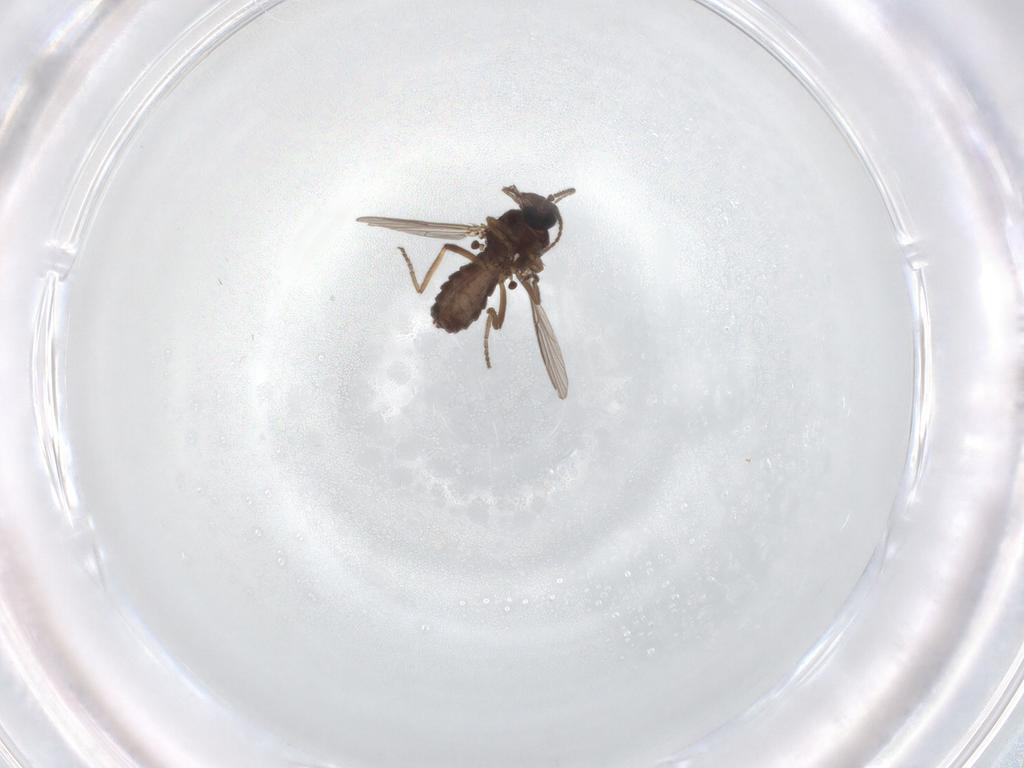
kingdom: Animalia
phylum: Arthropoda
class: Insecta
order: Diptera
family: Ceratopogonidae
